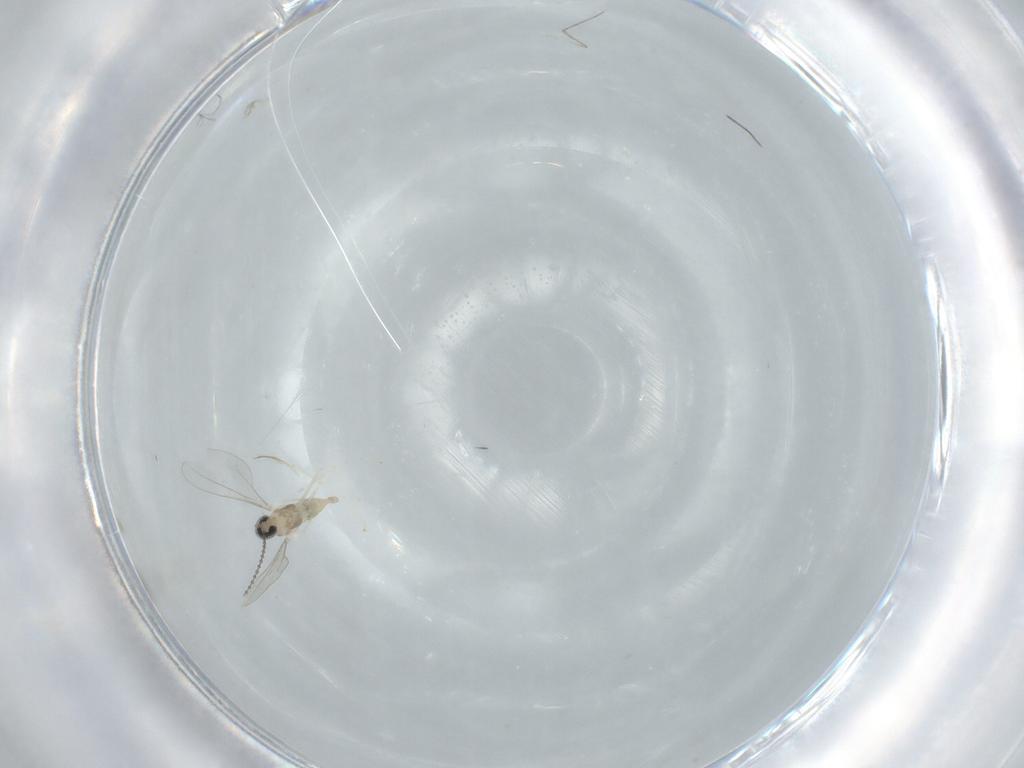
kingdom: Animalia
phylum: Arthropoda
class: Insecta
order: Diptera
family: Cecidomyiidae
